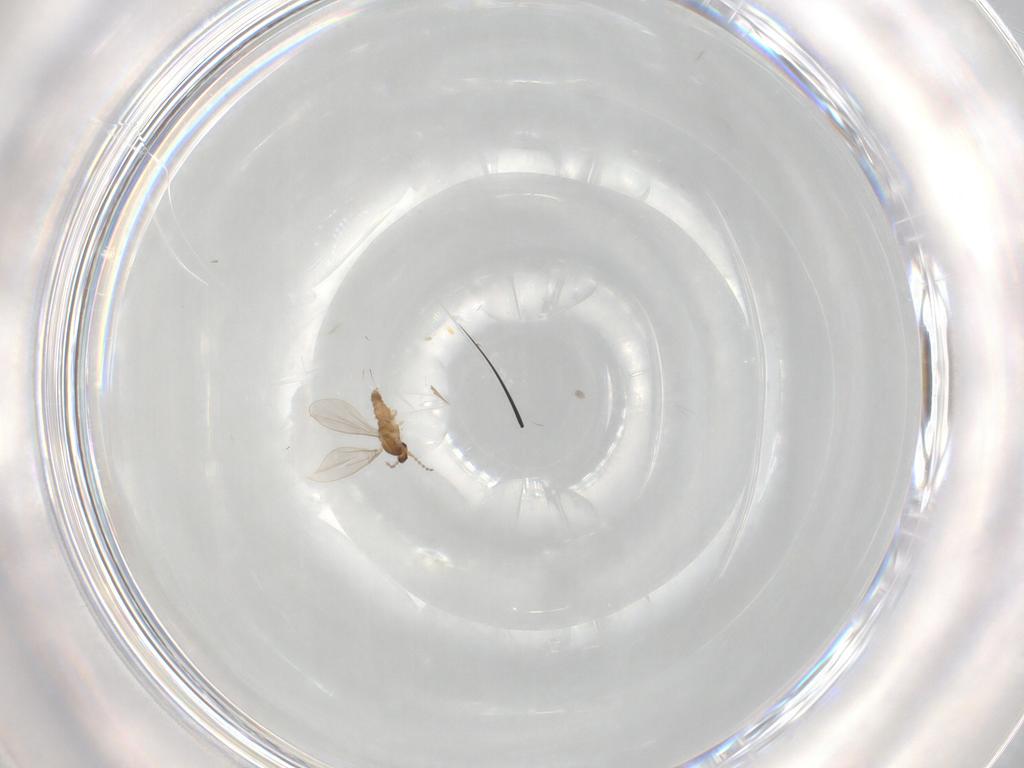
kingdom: Animalia
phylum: Arthropoda
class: Insecta
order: Diptera
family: Cecidomyiidae
